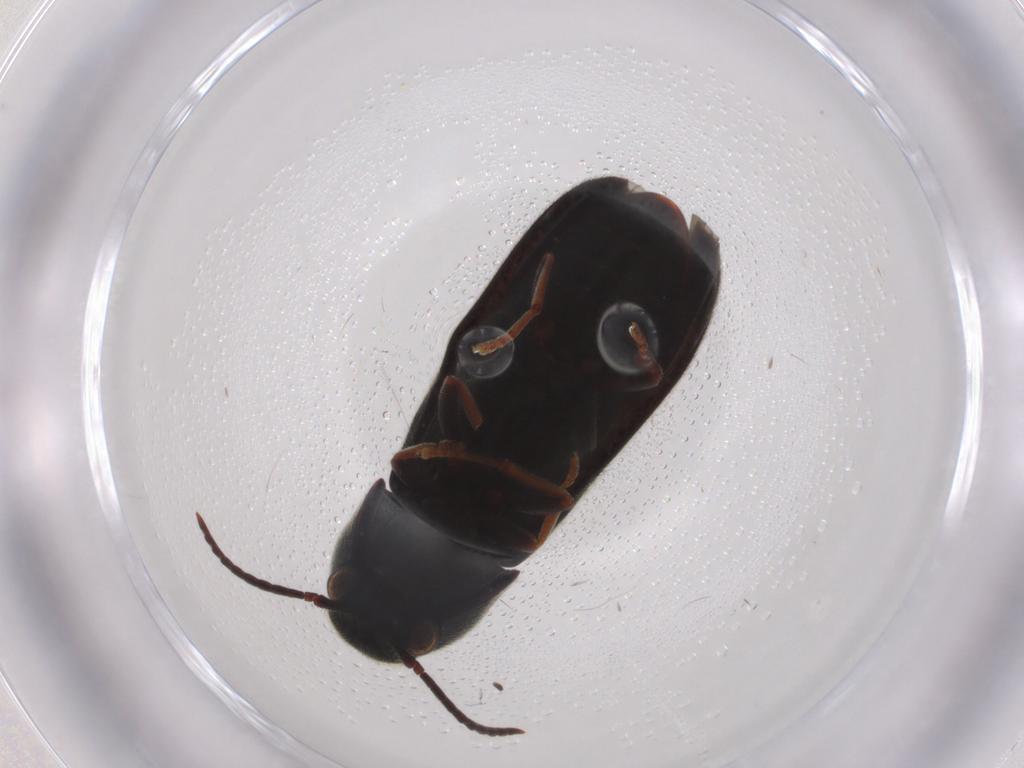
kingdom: Animalia
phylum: Arthropoda
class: Insecta
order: Coleoptera
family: Eucnemidae
